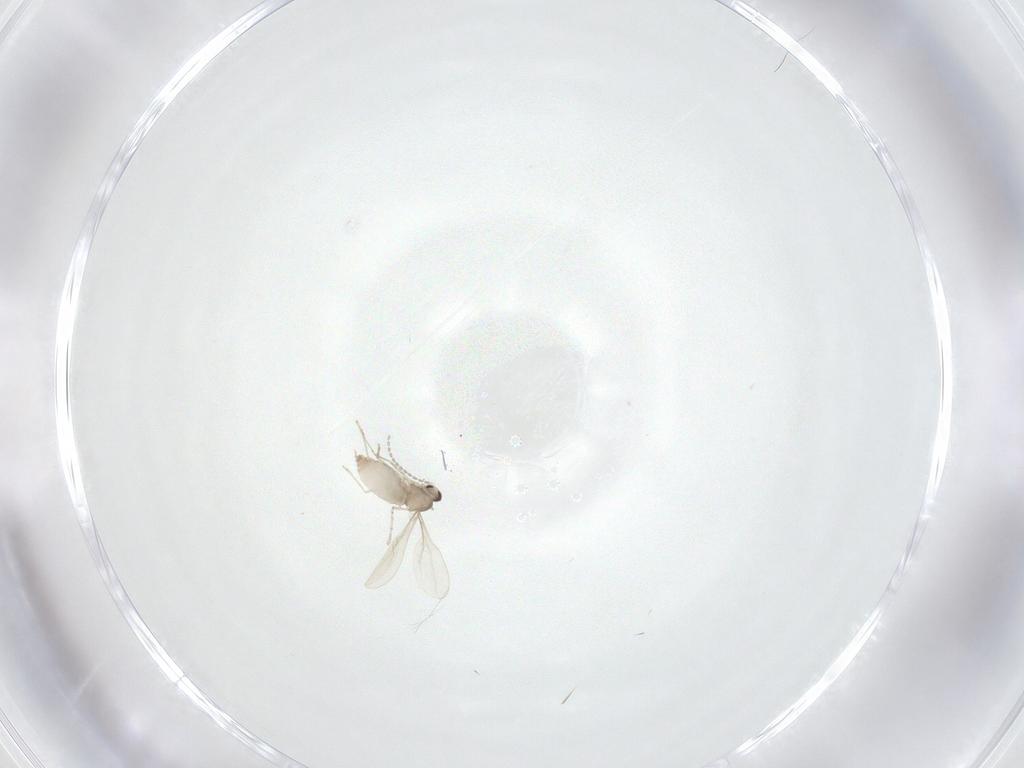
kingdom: Animalia
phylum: Arthropoda
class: Insecta
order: Diptera
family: Cecidomyiidae
